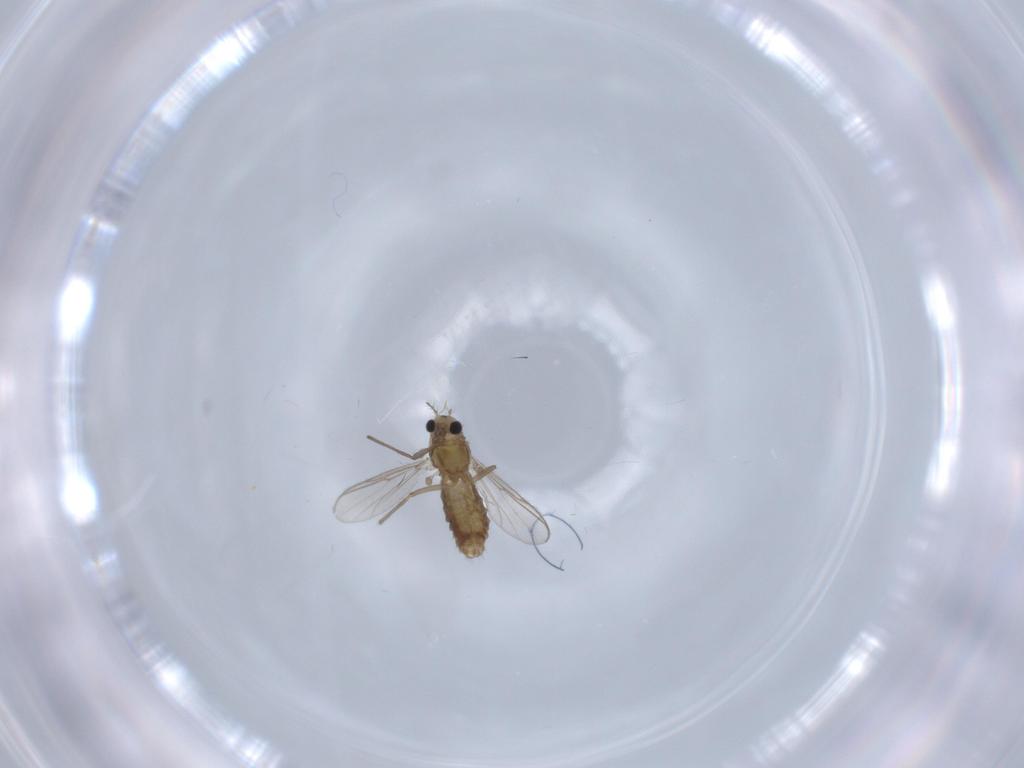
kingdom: Animalia
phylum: Arthropoda
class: Insecta
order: Diptera
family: Chironomidae
